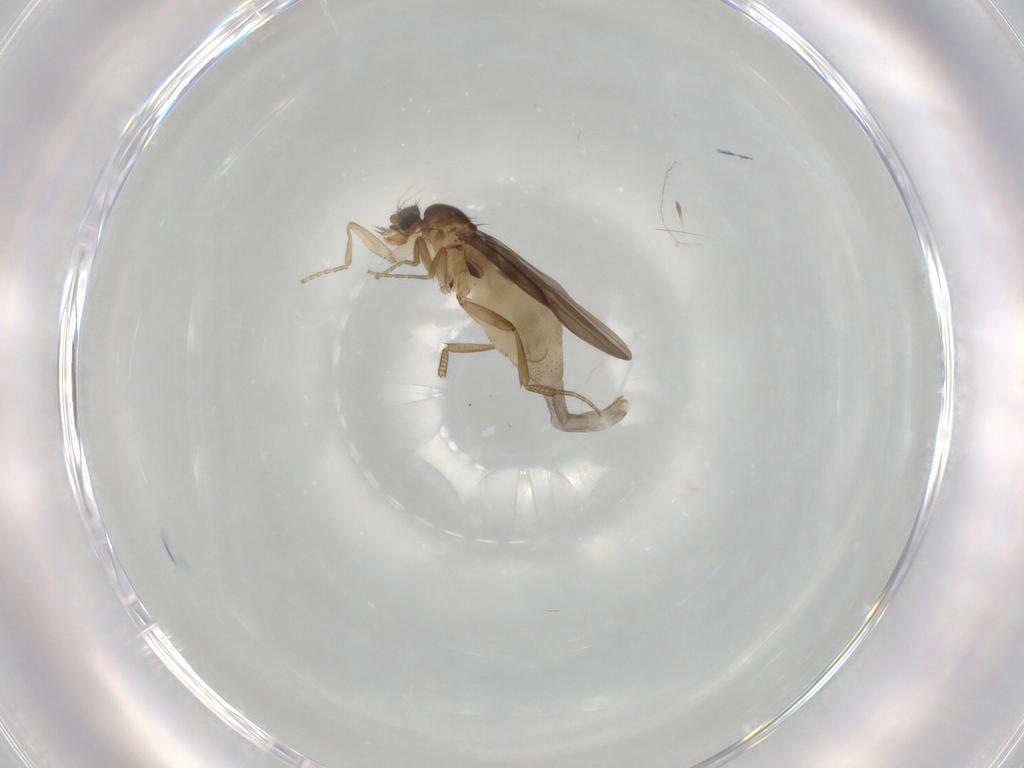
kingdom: Animalia
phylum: Arthropoda
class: Insecta
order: Diptera
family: Phoridae
